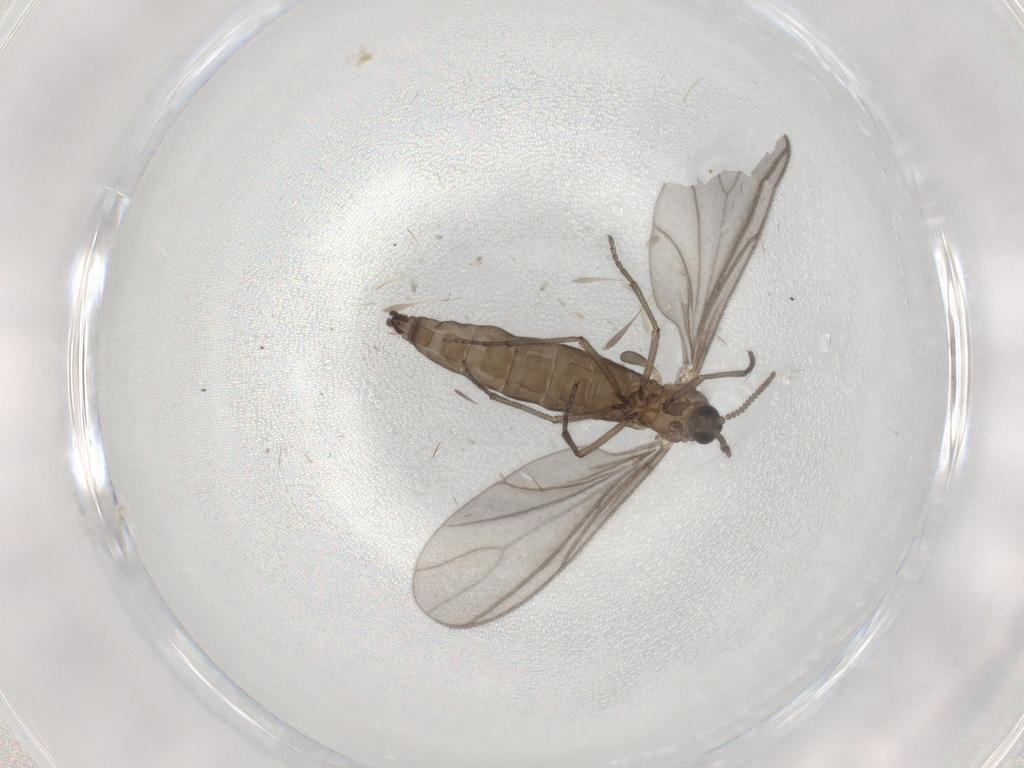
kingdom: Animalia
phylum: Arthropoda
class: Insecta
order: Diptera
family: Sciaridae
